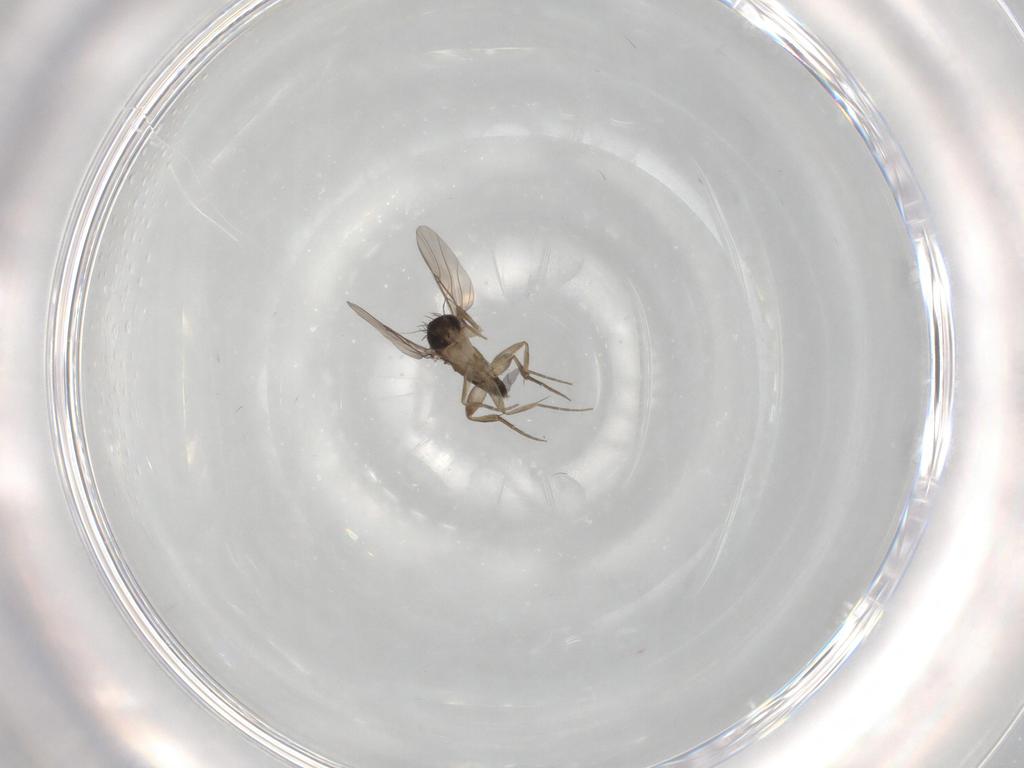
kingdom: Animalia
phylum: Arthropoda
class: Insecta
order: Diptera
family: Phoridae
